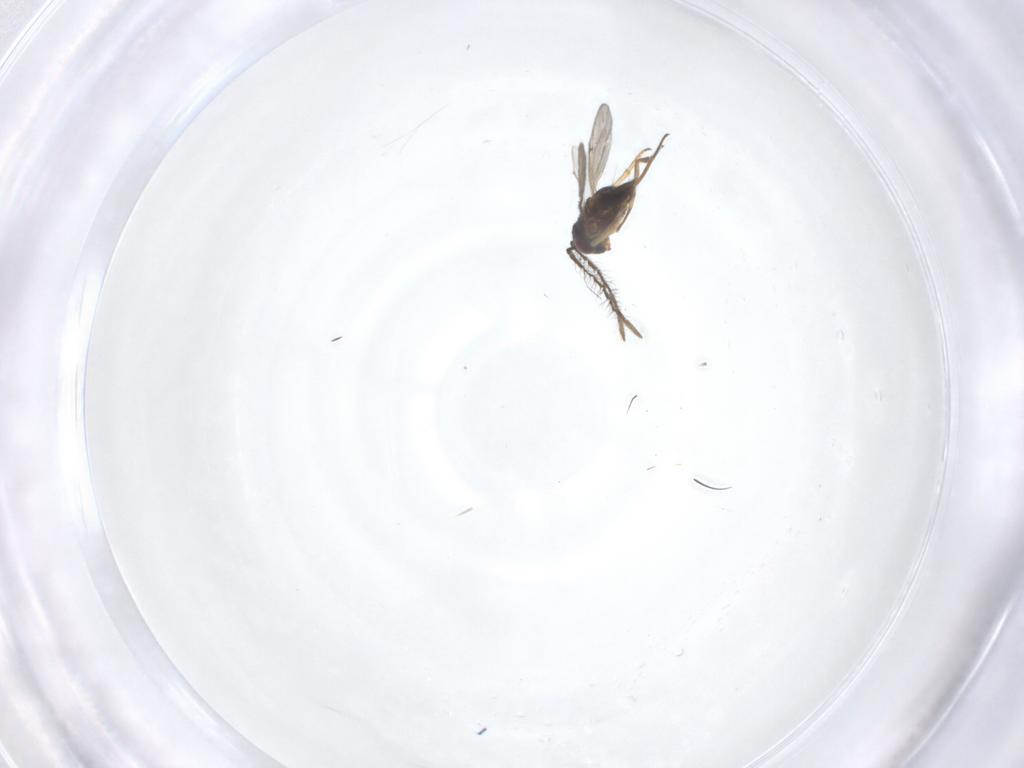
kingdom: Animalia
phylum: Arthropoda
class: Insecta
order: Hymenoptera
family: Encyrtidae
